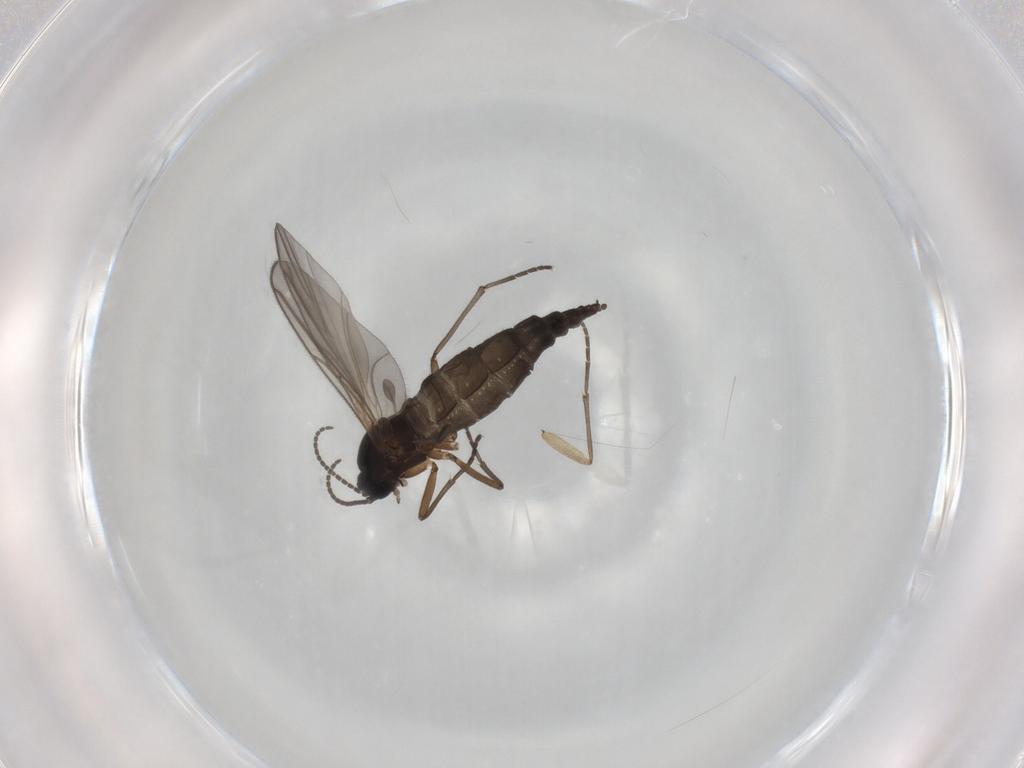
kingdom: Animalia
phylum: Arthropoda
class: Insecta
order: Diptera
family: Sciaridae
